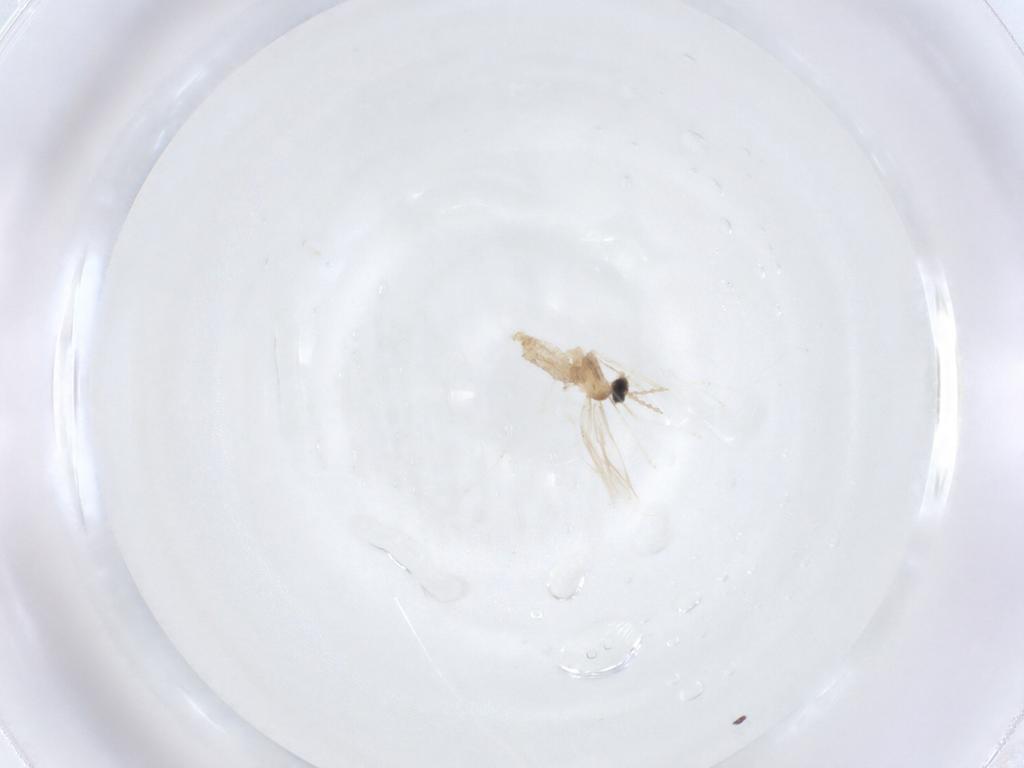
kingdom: Animalia
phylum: Arthropoda
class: Insecta
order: Diptera
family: Cecidomyiidae
